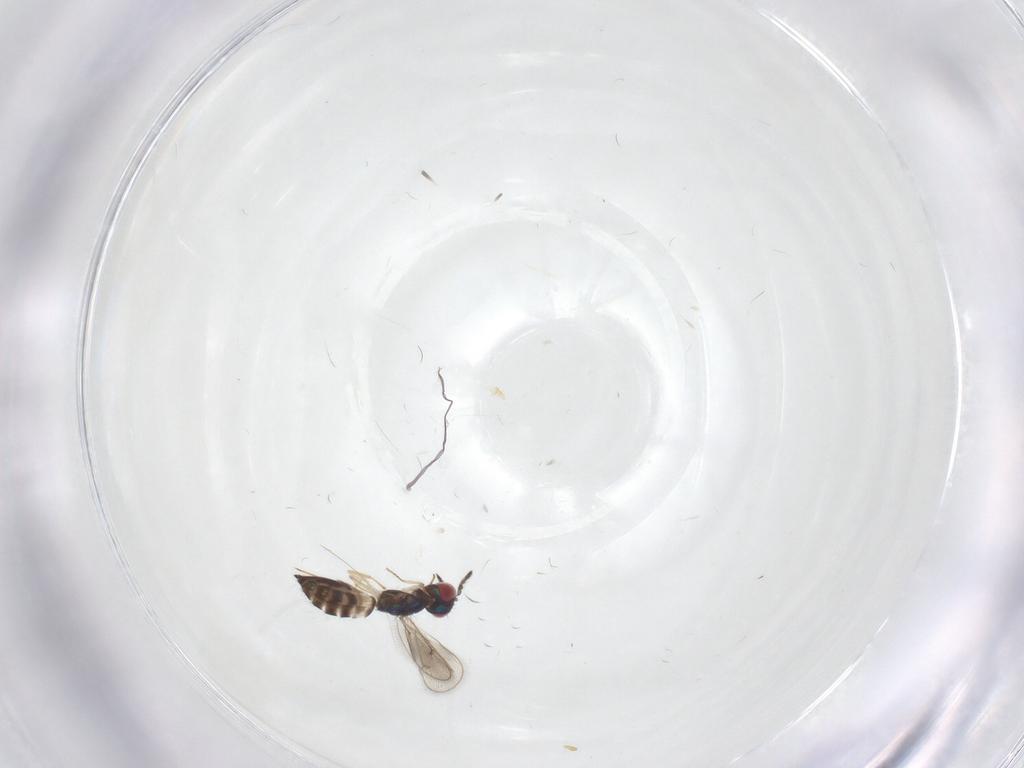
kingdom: Animalia
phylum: Arthropoda
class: Insecta
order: Hymenoptera
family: Eulophidae
